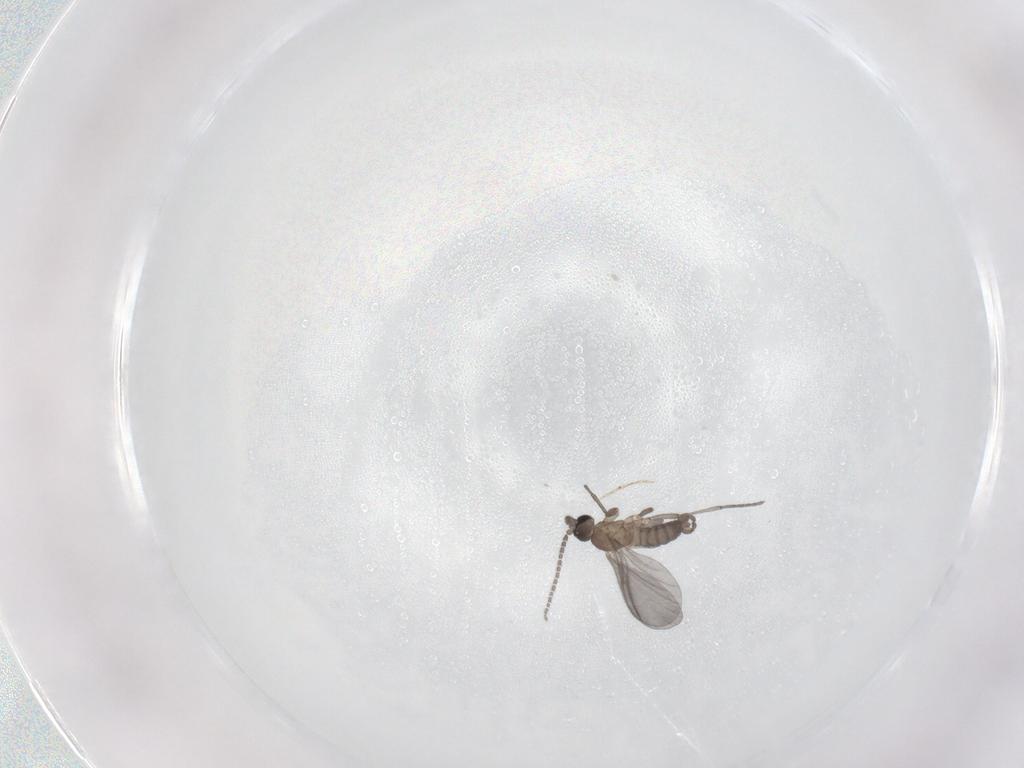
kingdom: Animalia
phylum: Arthropoda
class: Insecta
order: Diptera
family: Sciaridae
